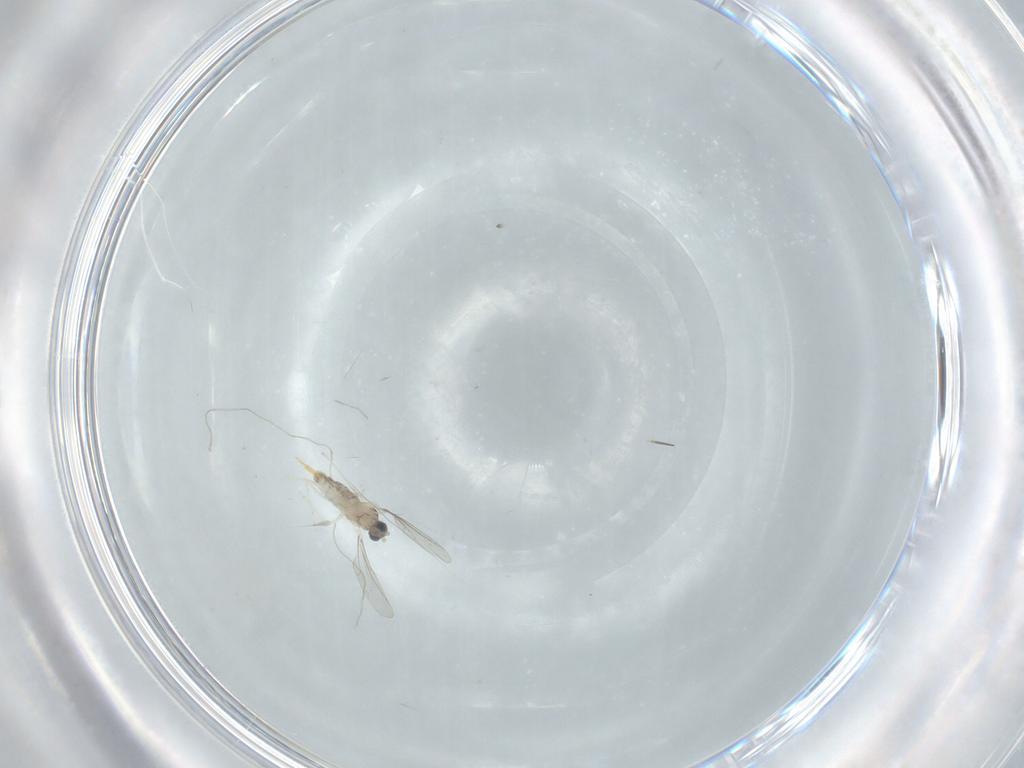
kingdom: Animalia
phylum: Arthropoda
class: Insecta
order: Diptera
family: Cecidomyiidae
